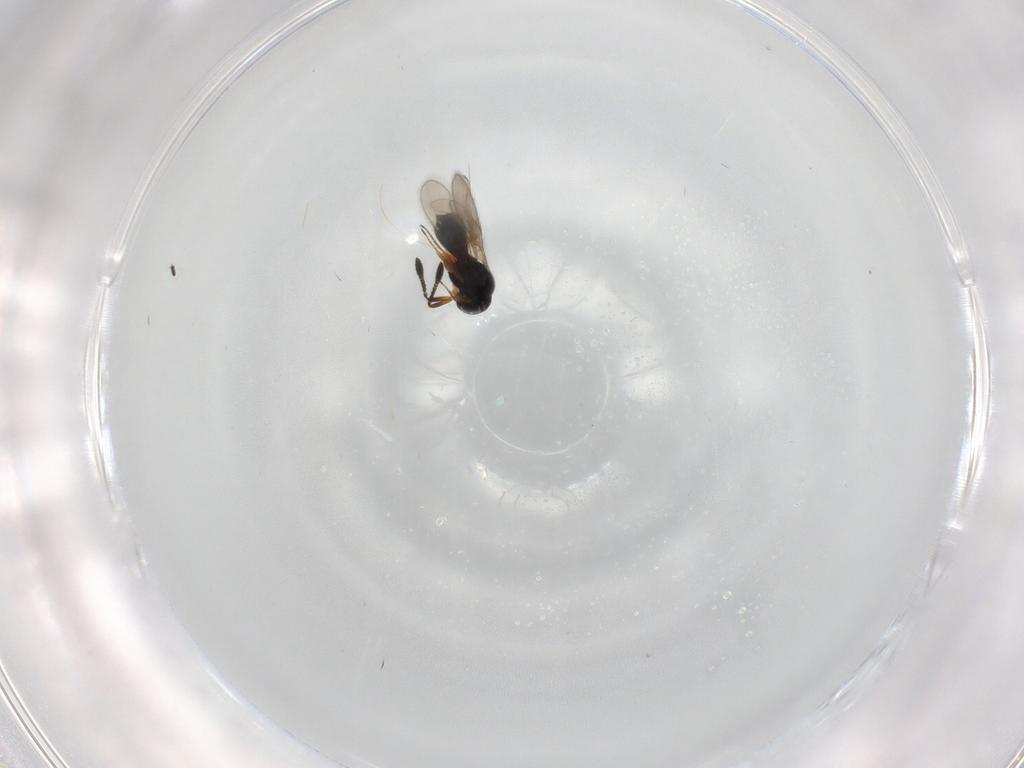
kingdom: Animalia
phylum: Arthropoda
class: Insecta
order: Hymenoptera
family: Scelionidae
